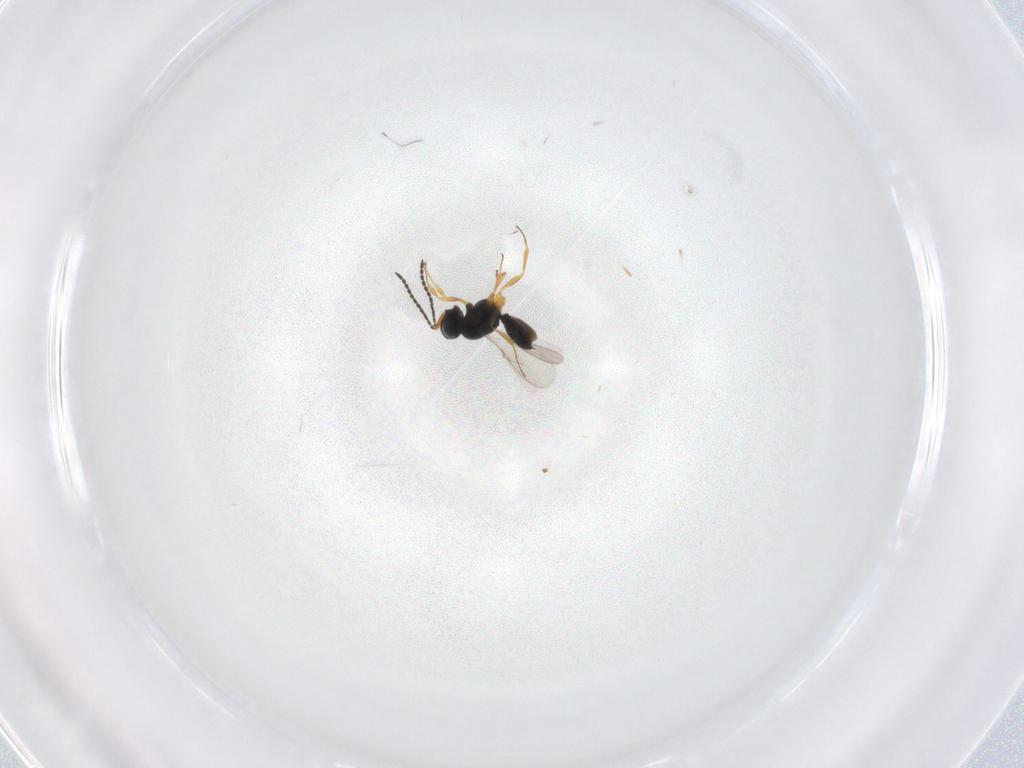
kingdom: Animalia
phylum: Arthropoda
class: Insecta
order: Hymenoptera
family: Scelionidae
